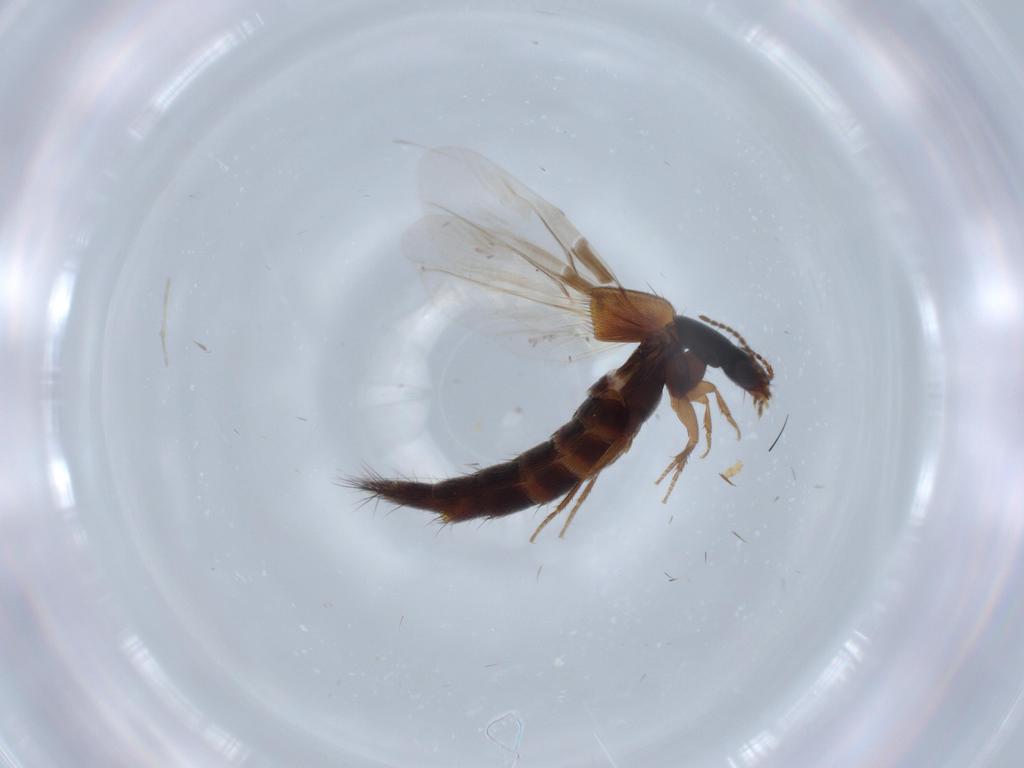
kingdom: Animalia
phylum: Arthropoda
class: Insecta
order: Coleoptera
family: Staphylinidae
